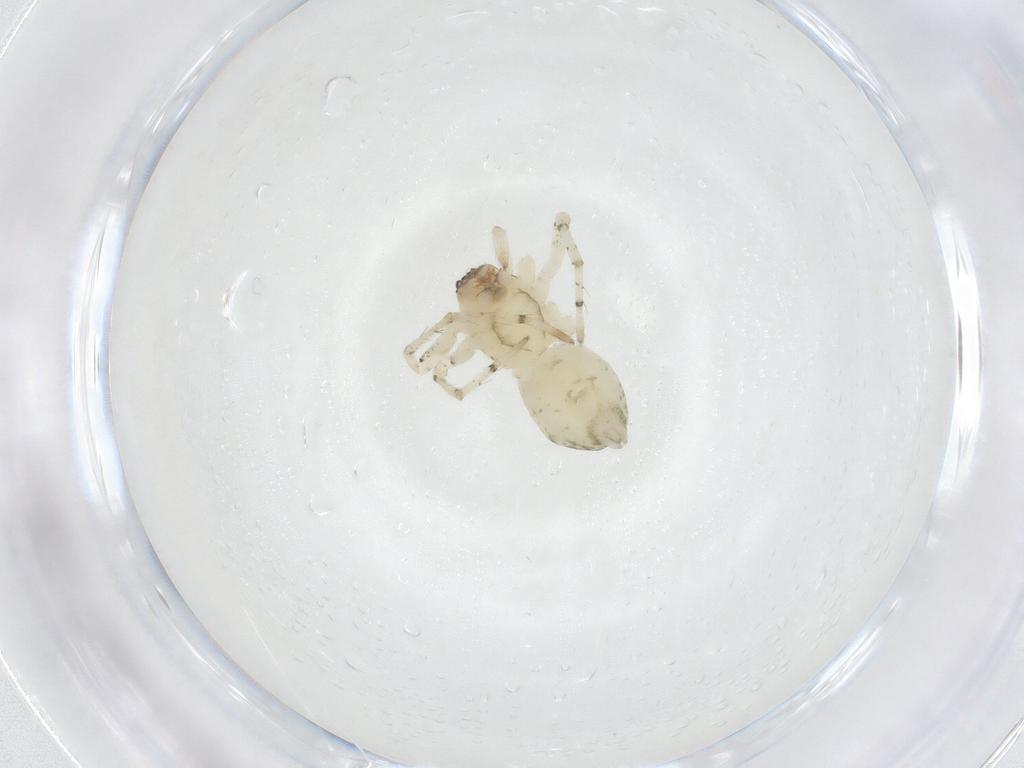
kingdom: Animalia
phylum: Arthropoda
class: Arachnida
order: Araneae
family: Anyphaenidae
